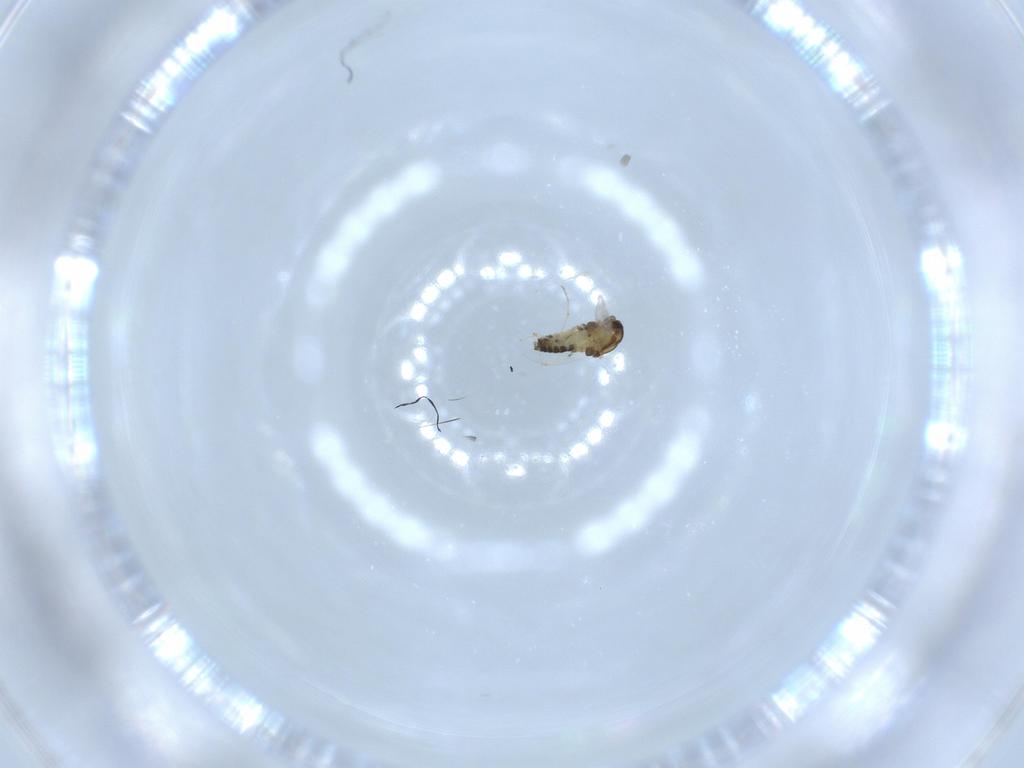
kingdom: Animalia
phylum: Arthropoda
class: Insecta
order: Diptera
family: Chironomidae
